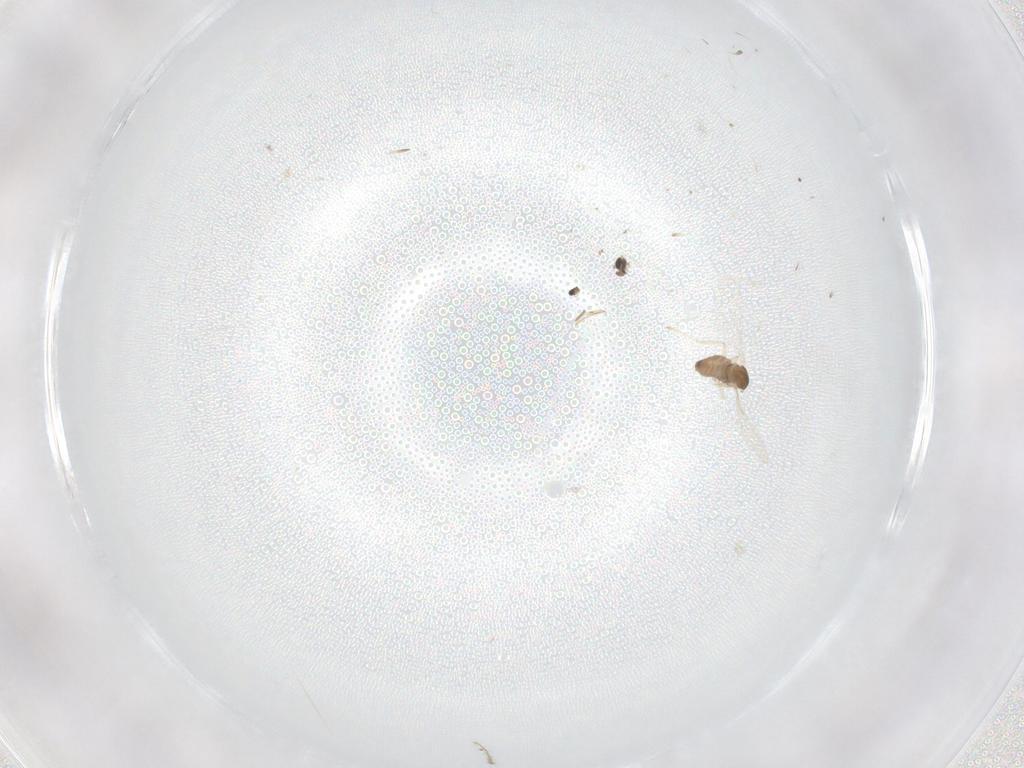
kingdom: Animalia
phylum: Arthropoda
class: Insecta
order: Diptera
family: Cecidomyiidae
